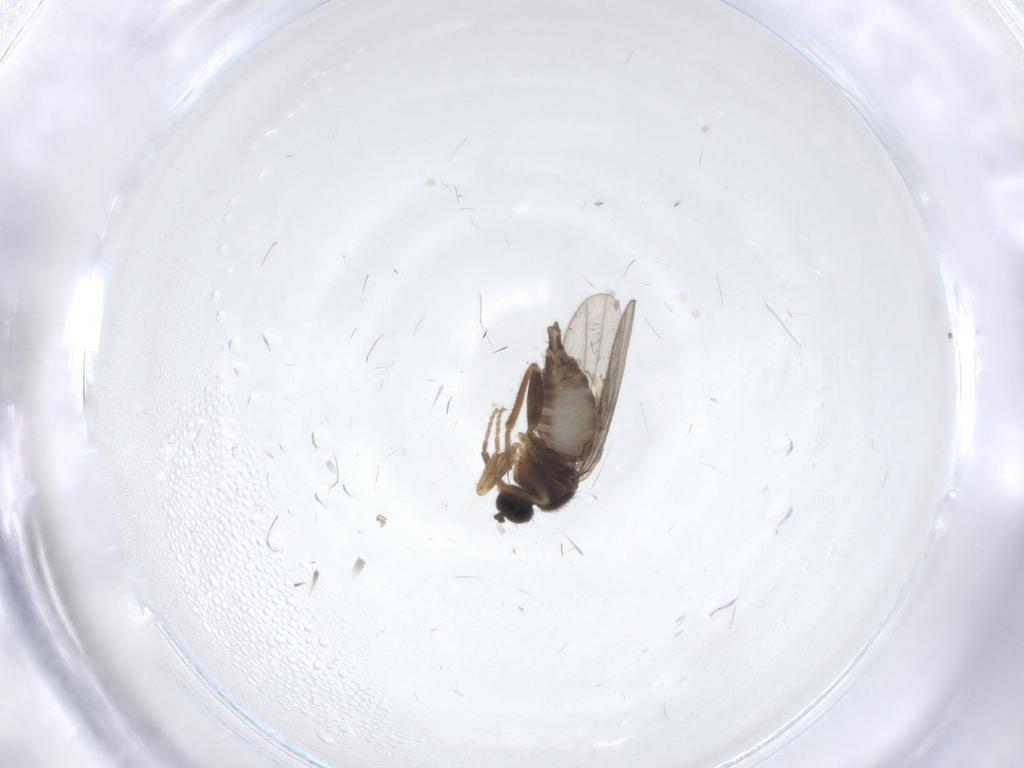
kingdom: Animalia
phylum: Arthropoda
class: Insecta
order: Diptera
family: Hybotidae
